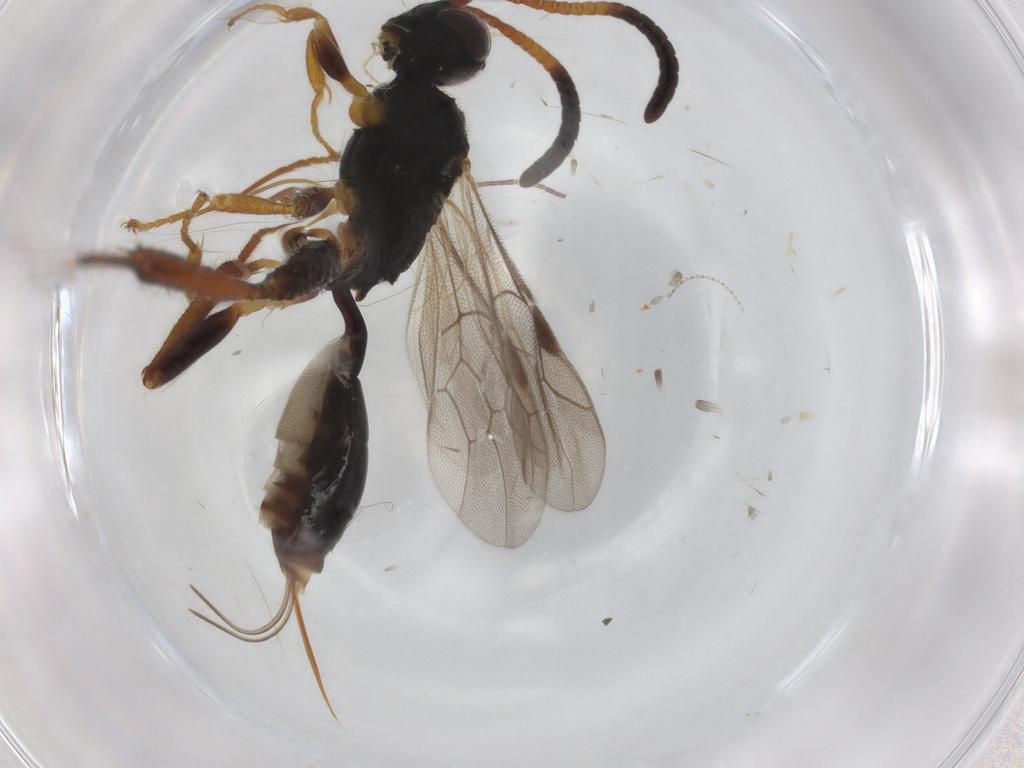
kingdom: Animalia
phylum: Arthropoda
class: Insecta
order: Hymenoptera
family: Ichneumonidae
